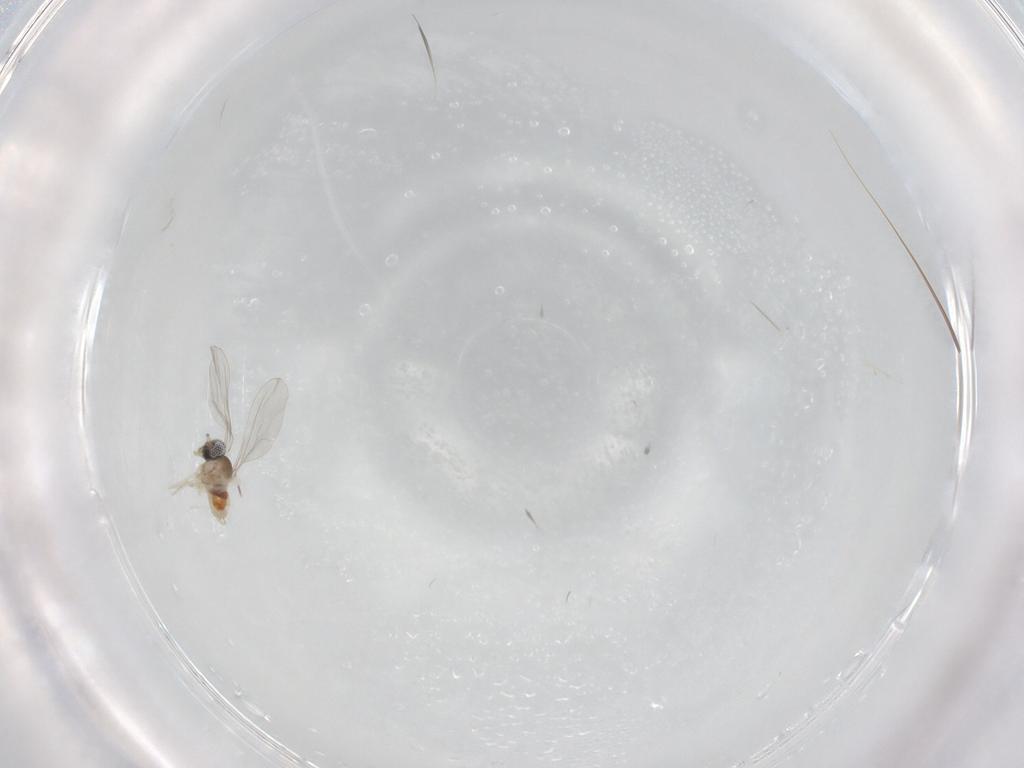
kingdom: Animalia
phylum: Arthropoda
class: Insecta
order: Diptera
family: Cecidomyiidae
